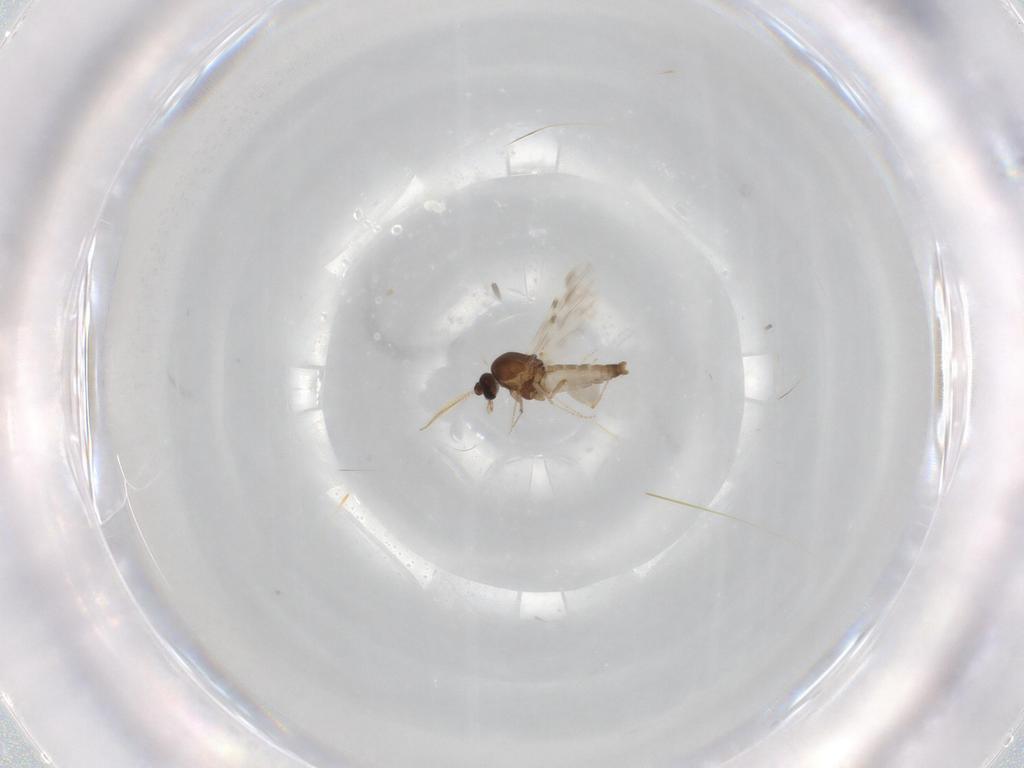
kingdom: Animalia
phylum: Arthropoda
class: Insecta
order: Diptera
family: Ceratopogonidae
